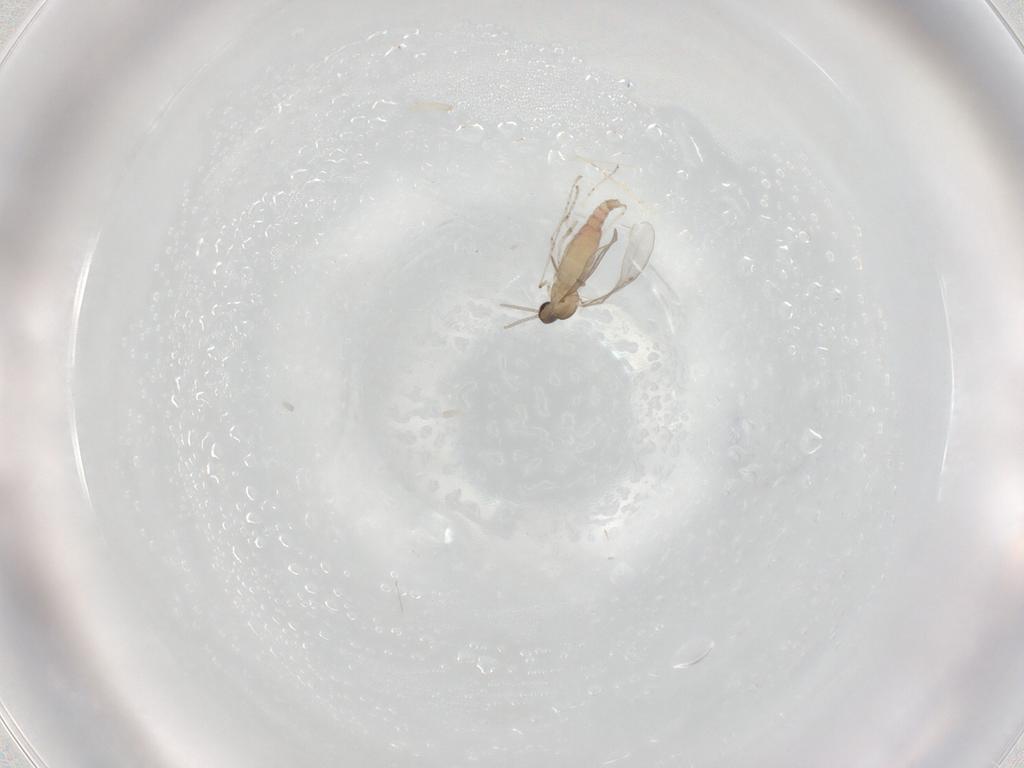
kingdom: Animalia
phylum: Arthropoda
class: Insecta
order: Diptera
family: Cecidomyiidae
